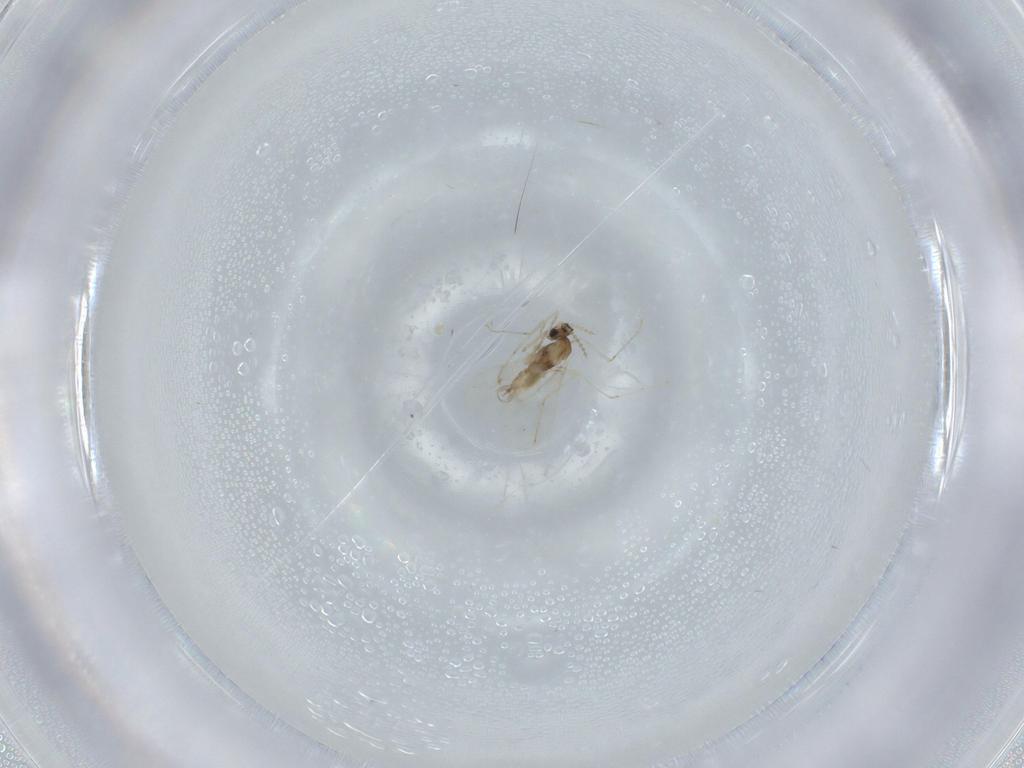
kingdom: Animalia
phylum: Arthropoda
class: Insecta
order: Diptera
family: Cecidomyiidae
